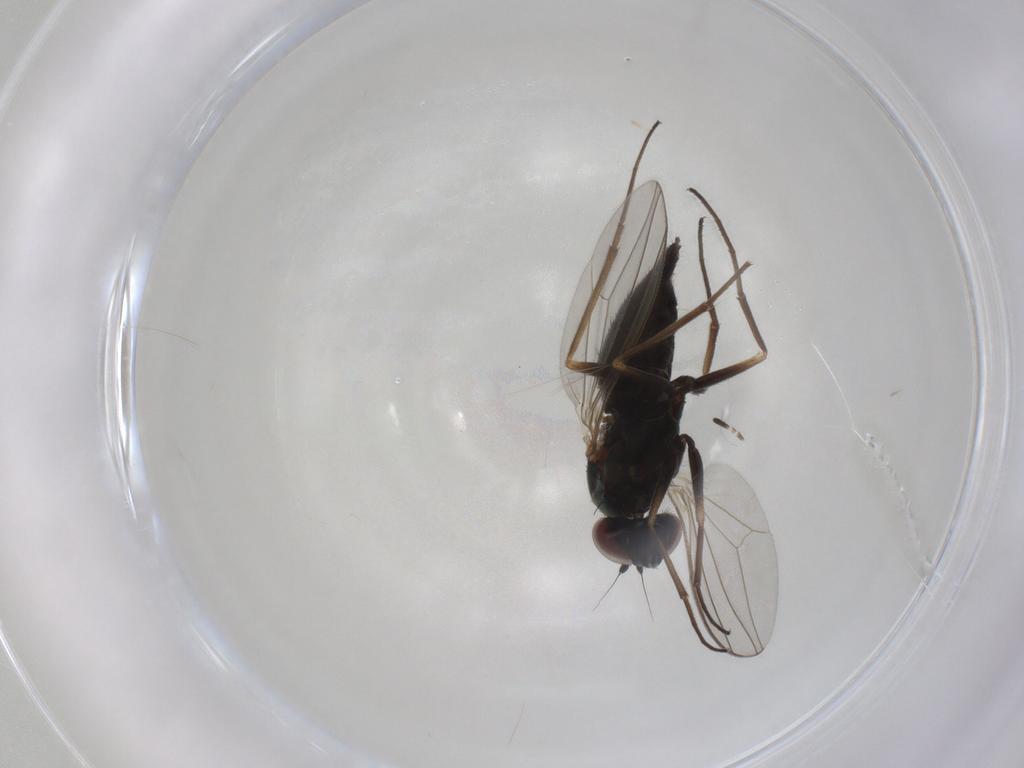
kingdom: Animalia
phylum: Arthropoda
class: Insecta
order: Diptera
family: Dolichopodidae
